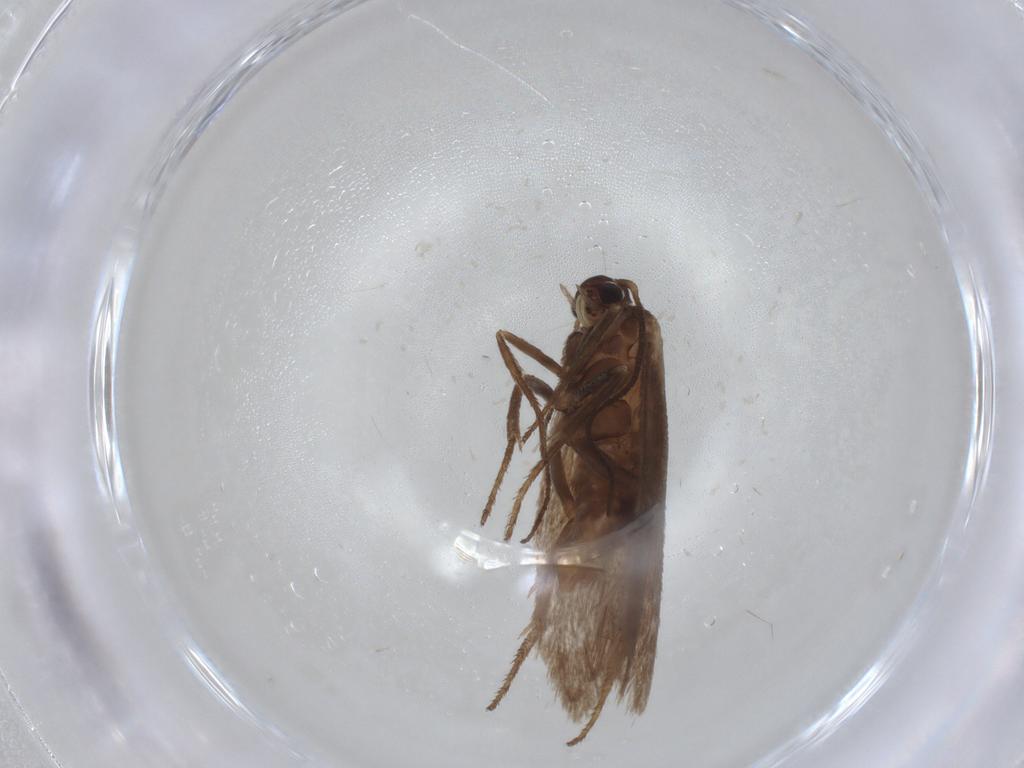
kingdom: Animalia
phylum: Arthropoda
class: Insecta
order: Lepidoptera
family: Limacodidae
